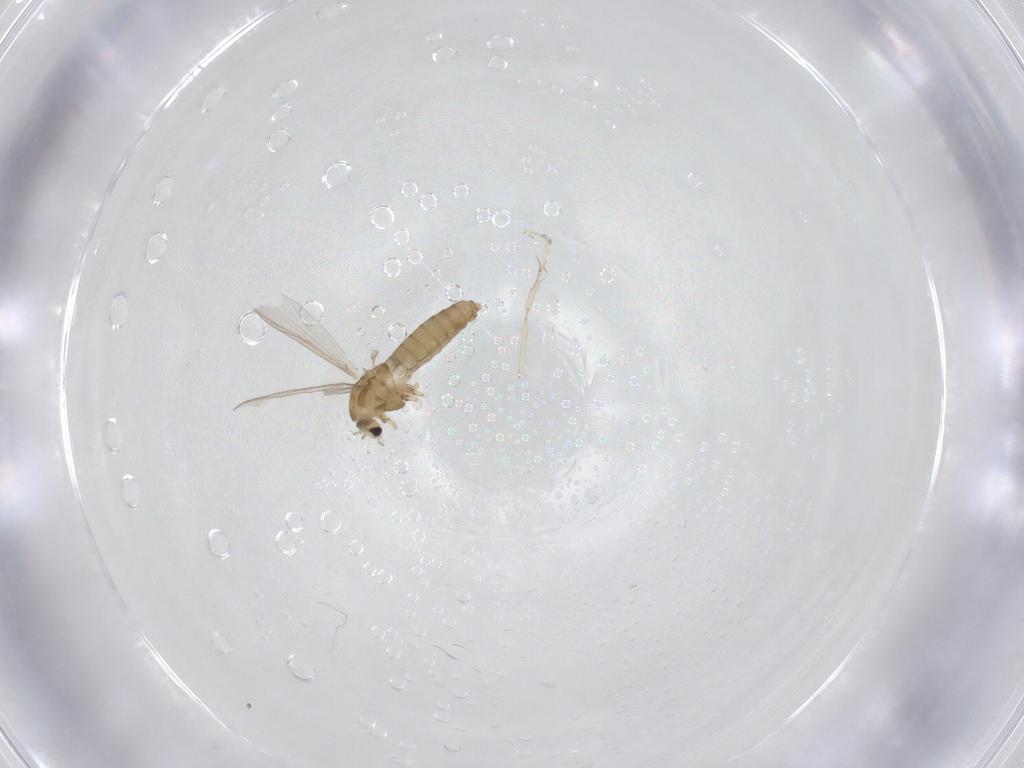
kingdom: Animalia
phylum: Arthropoda
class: Insecta
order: Diptera
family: Chironomidae
